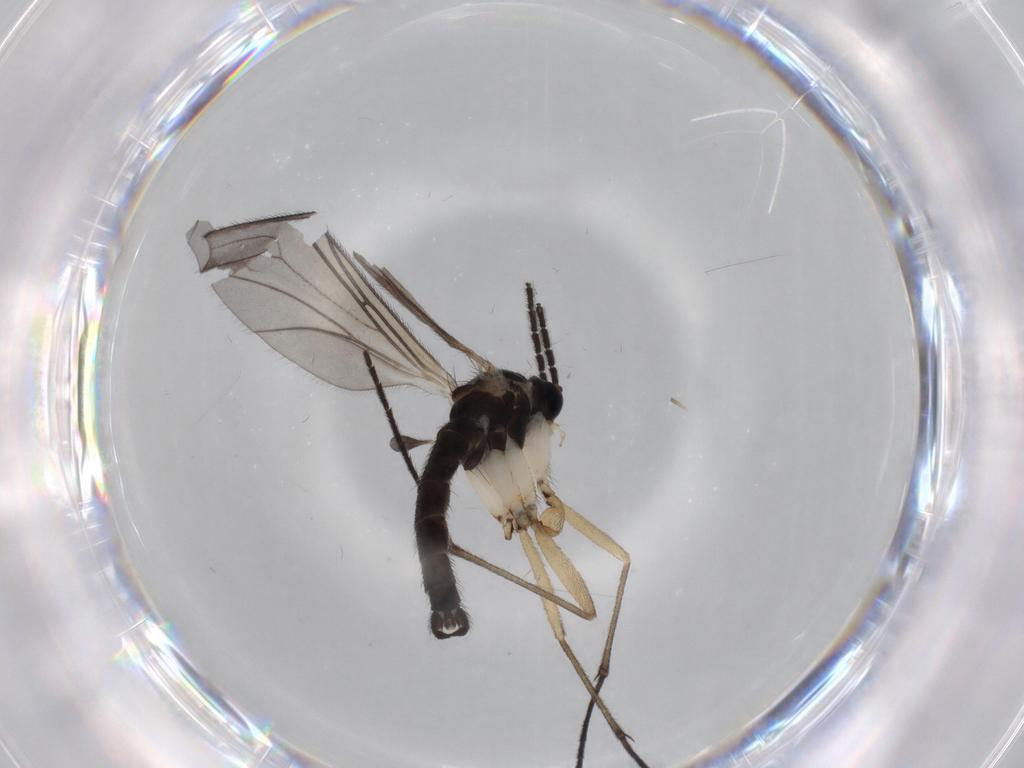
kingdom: Animalia
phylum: Arthropoda
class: Insecta
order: Diptera
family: Sciaridae
